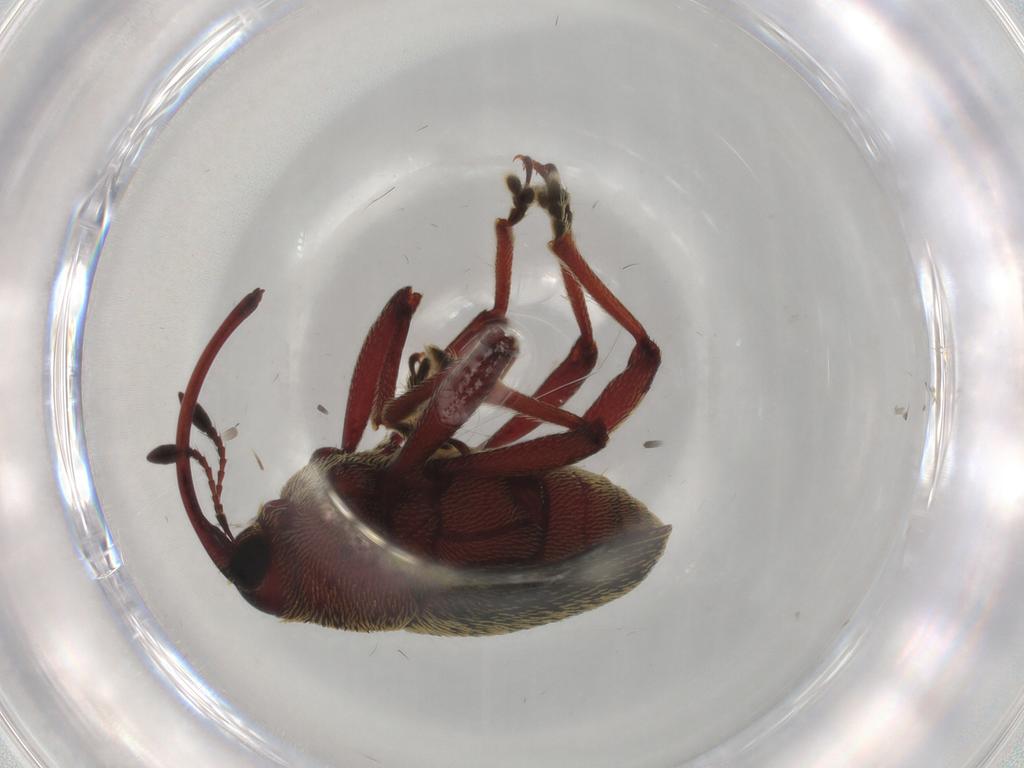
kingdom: Animalia
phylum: Arthropoda
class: Insecta
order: Coleoptera
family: Curculionidae
